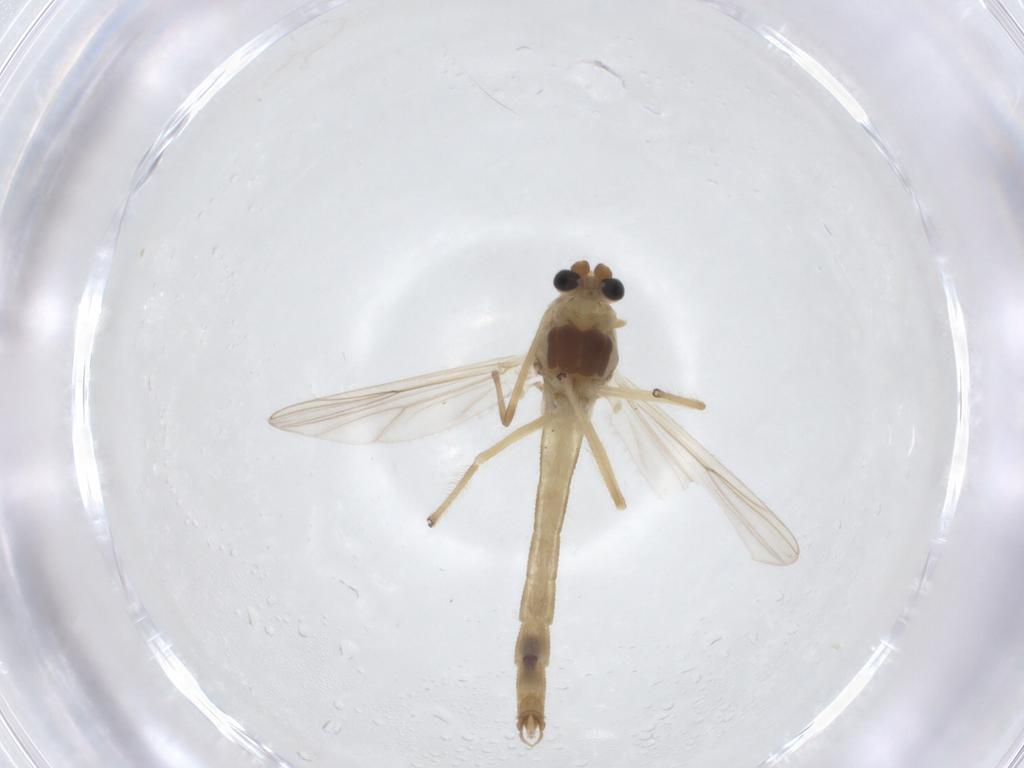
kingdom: Animalia
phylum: Arthropoda
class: Insecta
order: Diptera
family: Chironomidae
